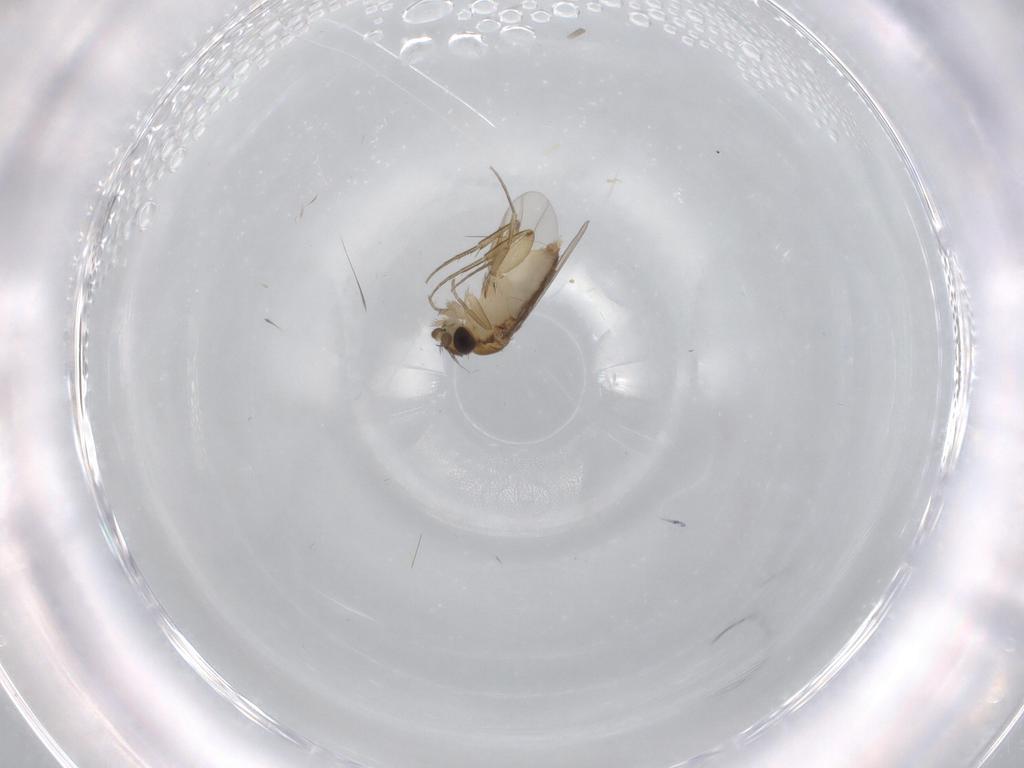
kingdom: Animalia
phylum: Arthropoda
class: Insecta
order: Diptera
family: Phoridae
